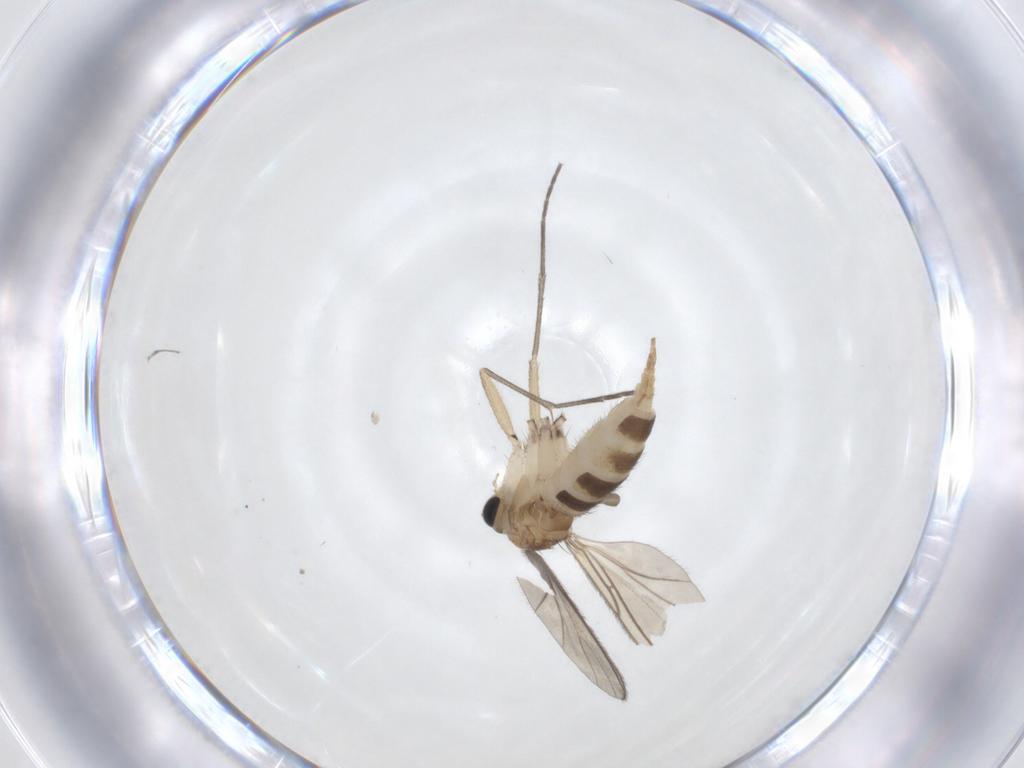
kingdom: Animalia
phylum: Arthropoda
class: Insecta
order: Diptera
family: Sciaridae
